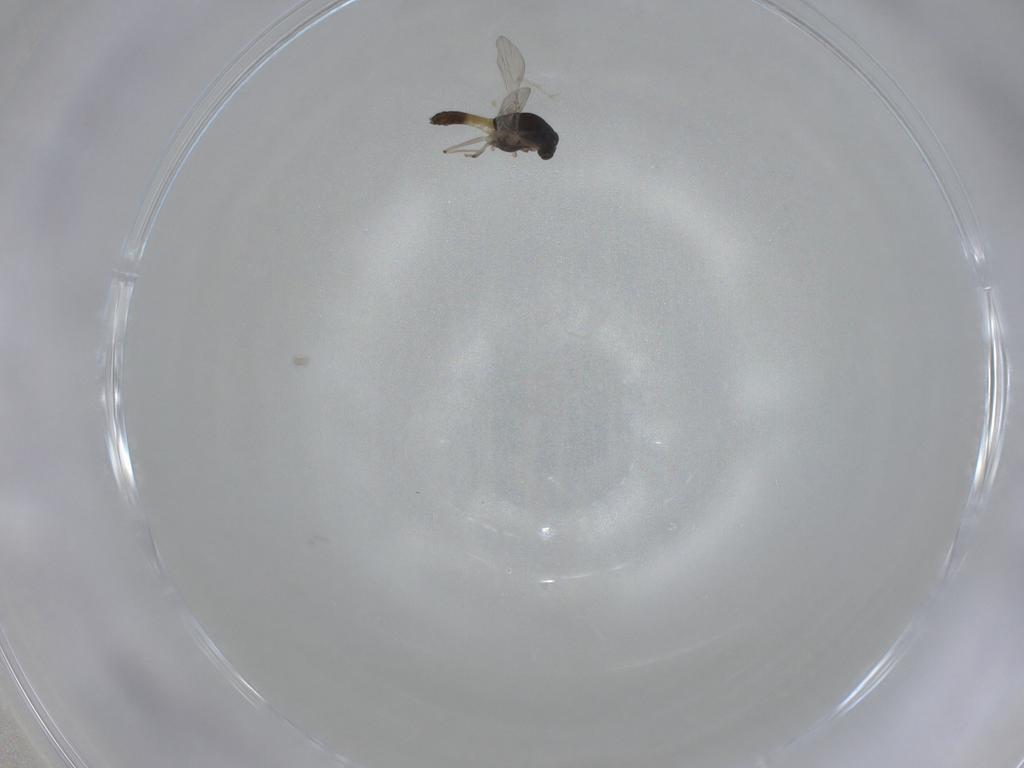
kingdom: Animalia
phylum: Arthropoda
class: Insecta
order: Diptera
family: Chironomidae
